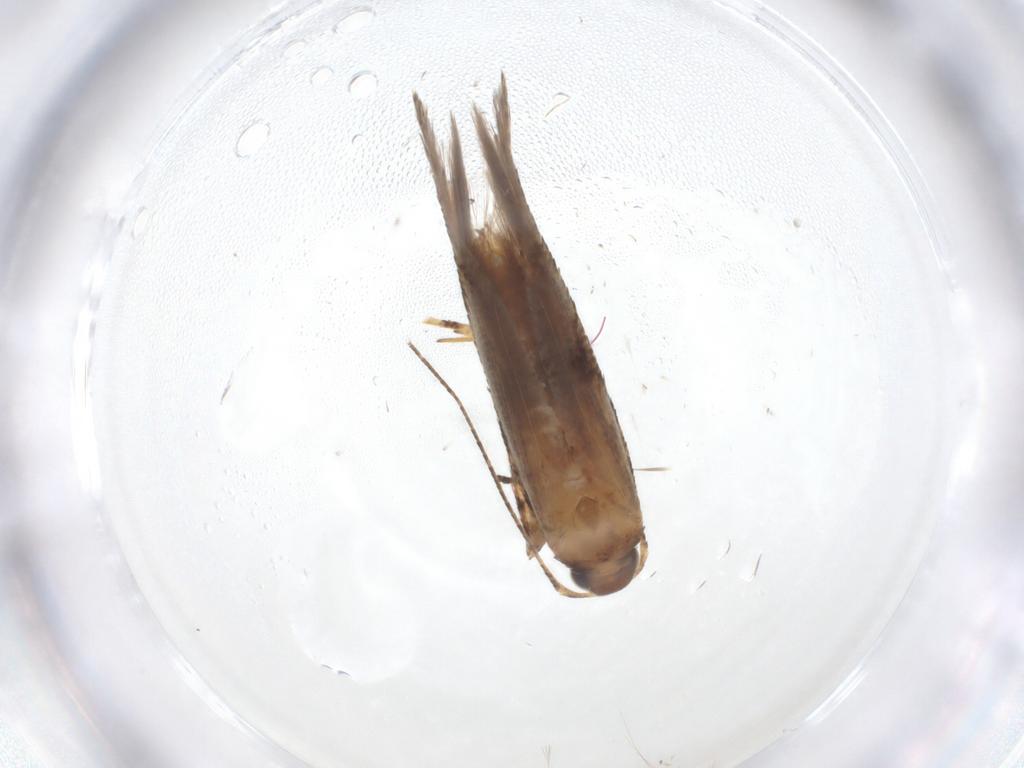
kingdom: Animalia
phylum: Arthropoda
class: Insecta
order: Lepidoptera
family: Gelechiidae
